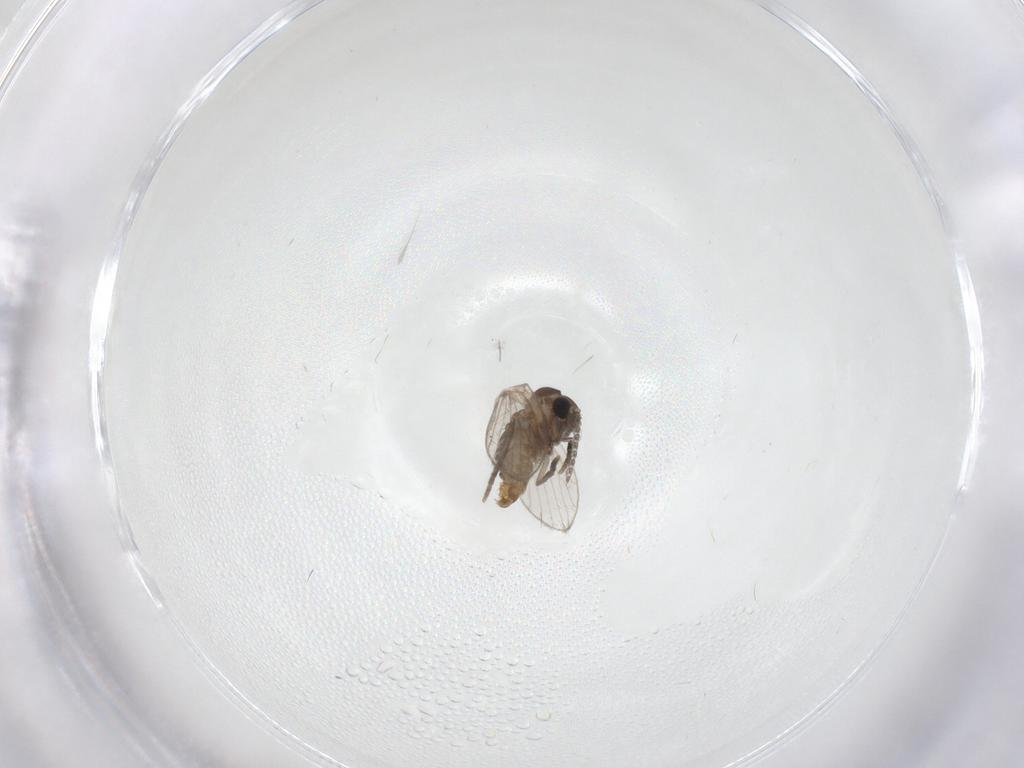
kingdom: Animalia
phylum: Arthropoda
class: Insecta
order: Diptera
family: Psychodidae
